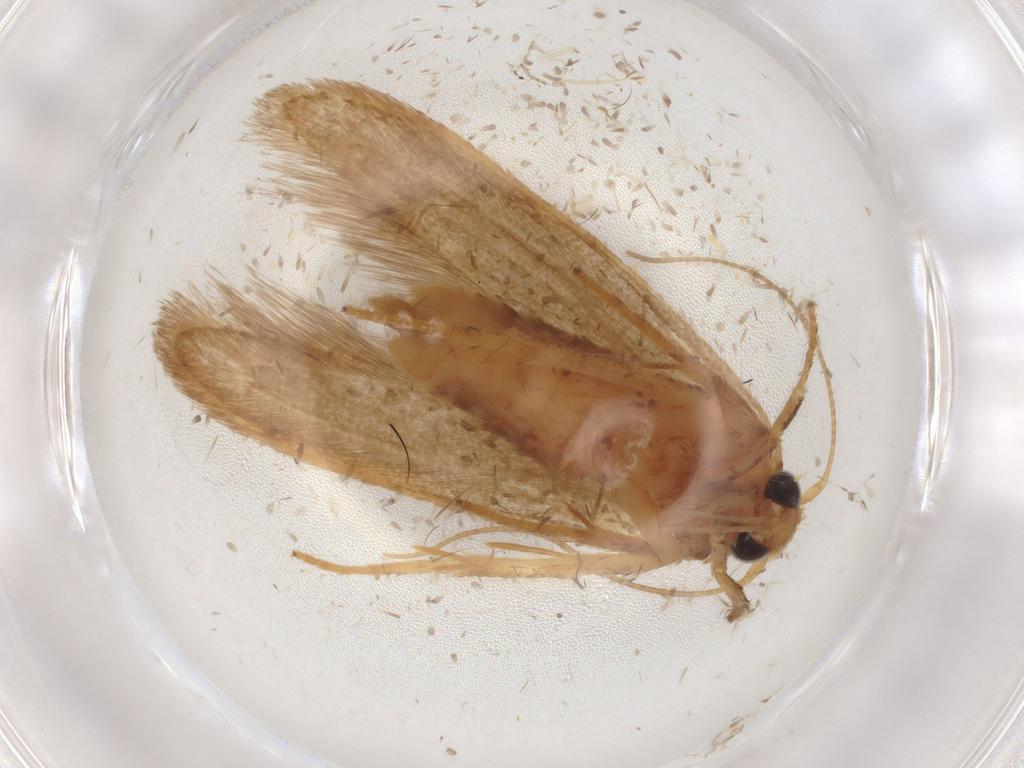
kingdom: Animalia
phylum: Arthropoda
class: Insecta
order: Lepidoptera
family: Blastobasidae
